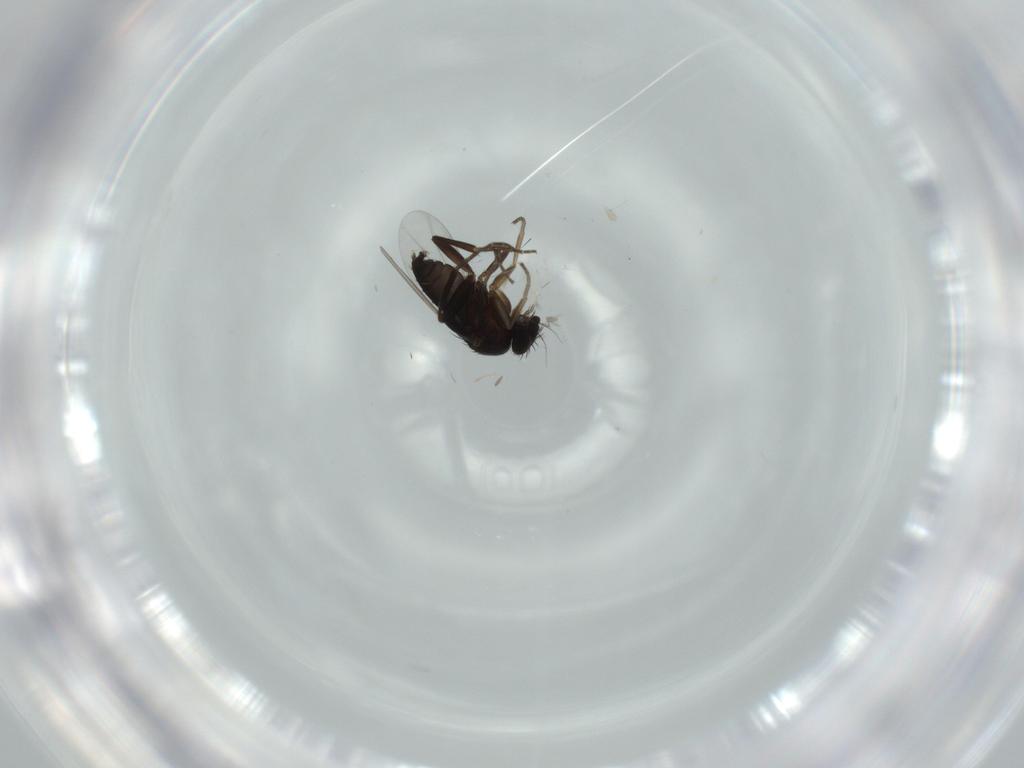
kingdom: Animalia
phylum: Arthropoda
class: Insecta
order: Diptera
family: Phoridae
